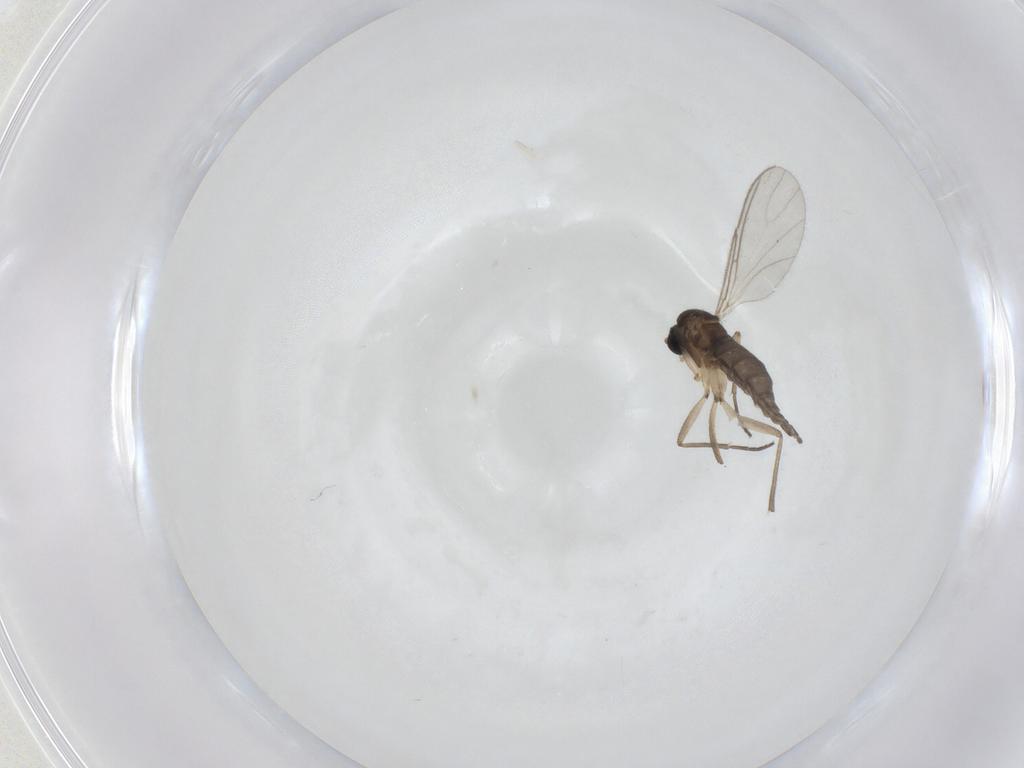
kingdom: Animalia
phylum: Arthropoda
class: Insecta
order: Diptera
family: Sciaridae
